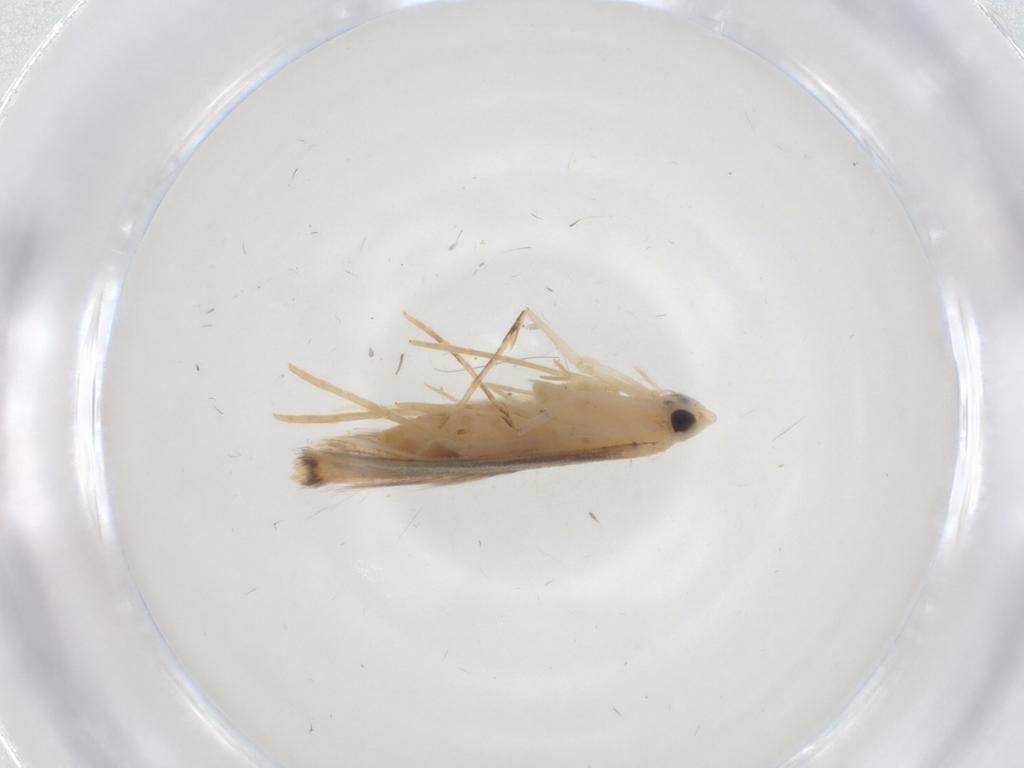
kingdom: Animalia
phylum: Arthropoda
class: Insecta
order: Lepidoptera
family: Lyonetiidae
